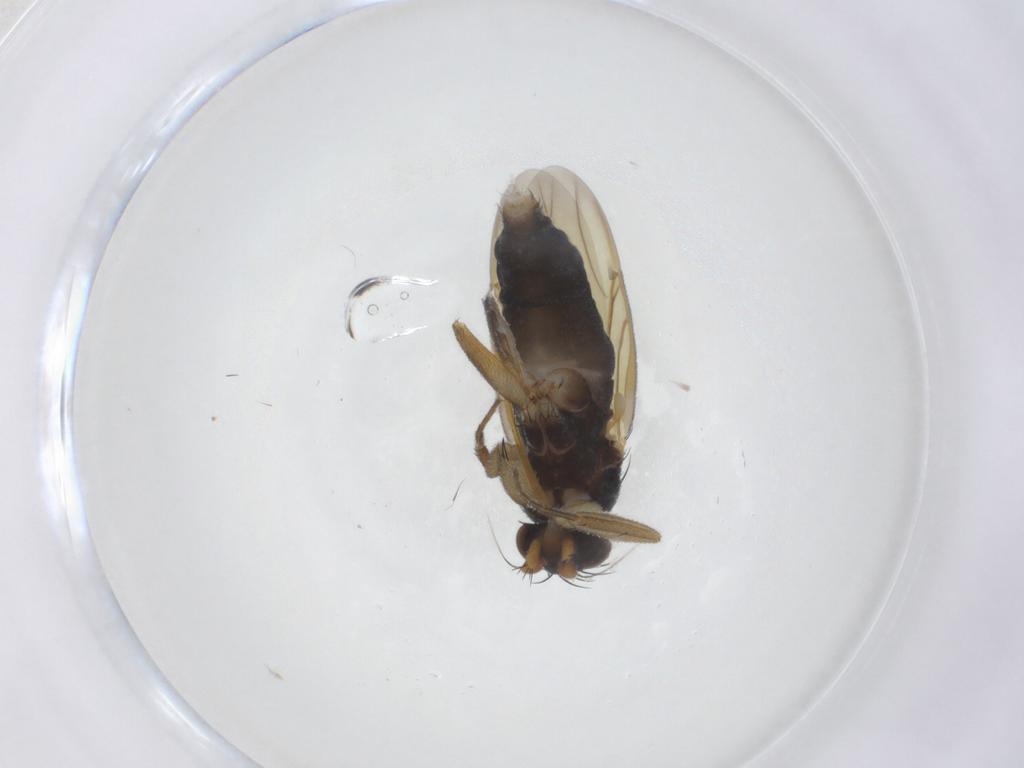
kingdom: Animalia
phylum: Arthropoda
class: Insecta
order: Diptera
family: Phoridae
